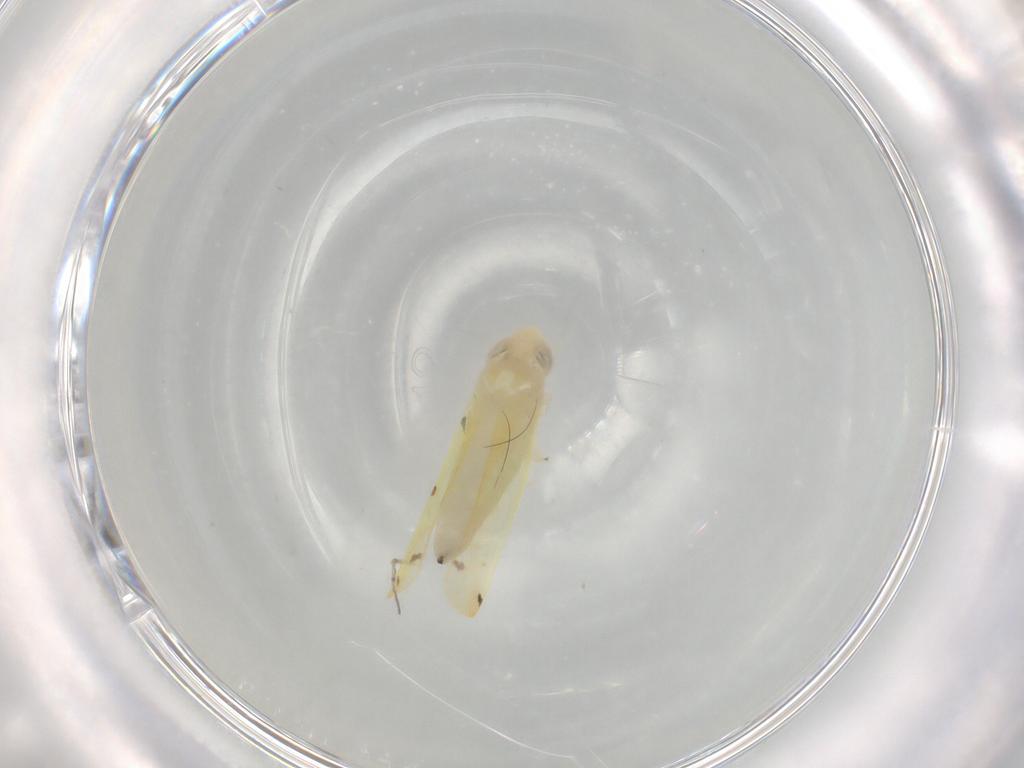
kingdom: Animalia
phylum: Arthropoda
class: Insecta
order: Hemiptera
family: Cicadellidae
